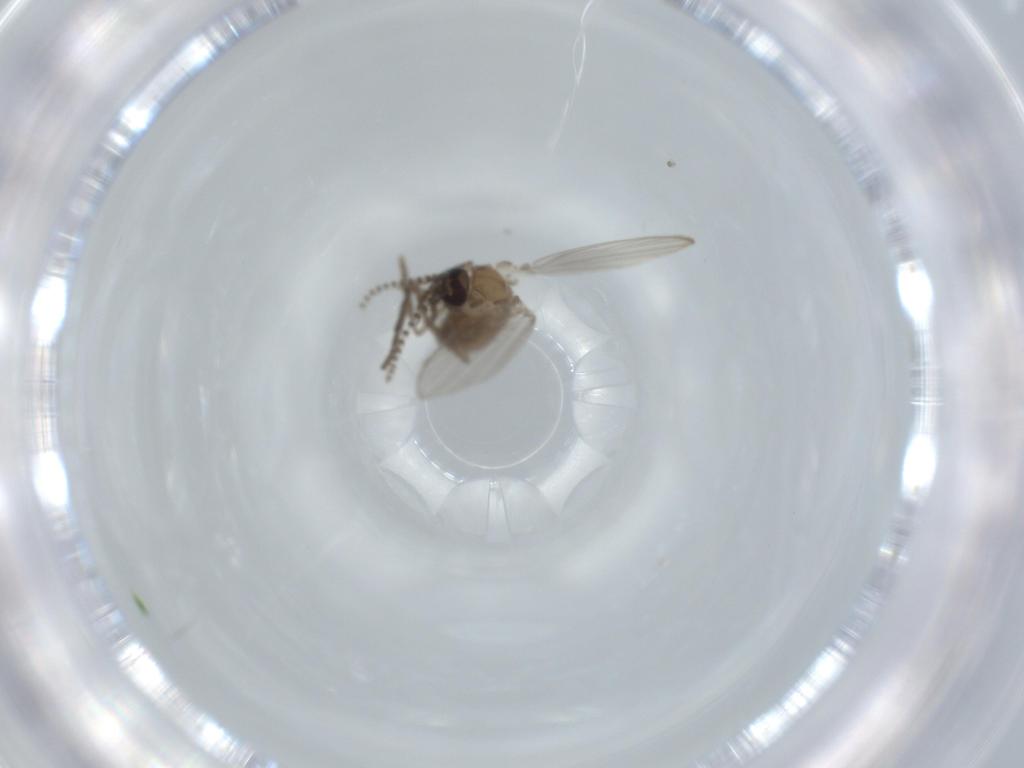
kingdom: Animalia
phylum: Arthropoda
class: Insecta
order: Diptera
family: Psychodidae
